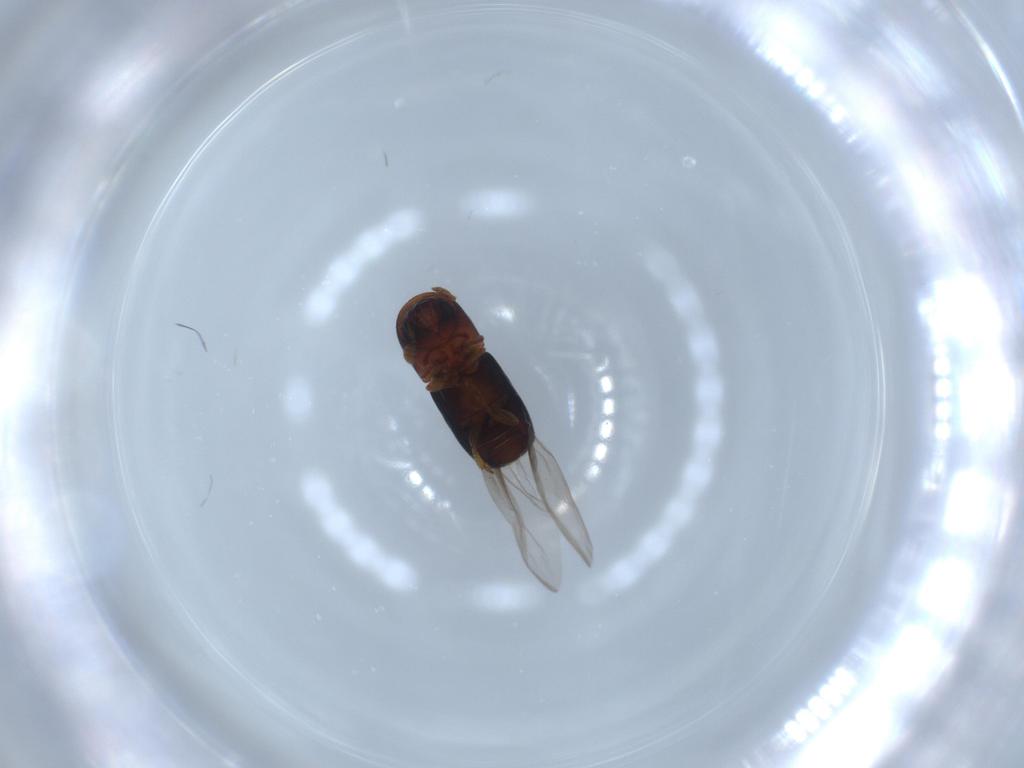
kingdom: Animalia
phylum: Arthropoda
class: Insecta
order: Coleoptera
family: Curculionidae
